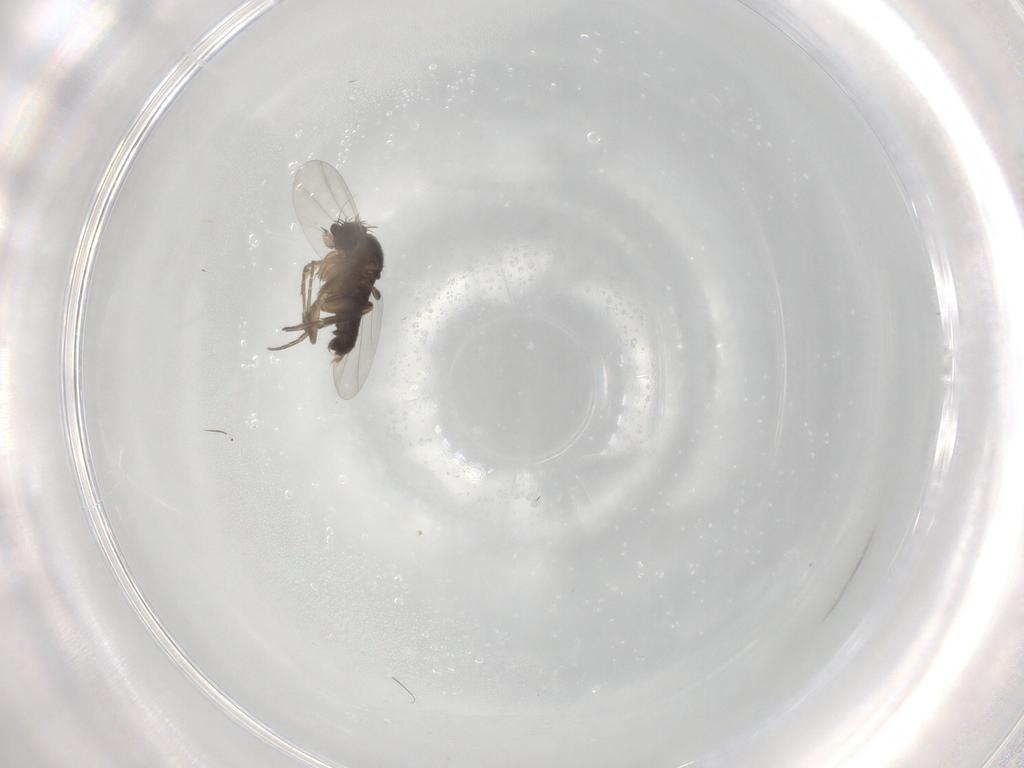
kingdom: Animalia
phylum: Arthropoda
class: Insecta
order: Diptera
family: Phoridae
